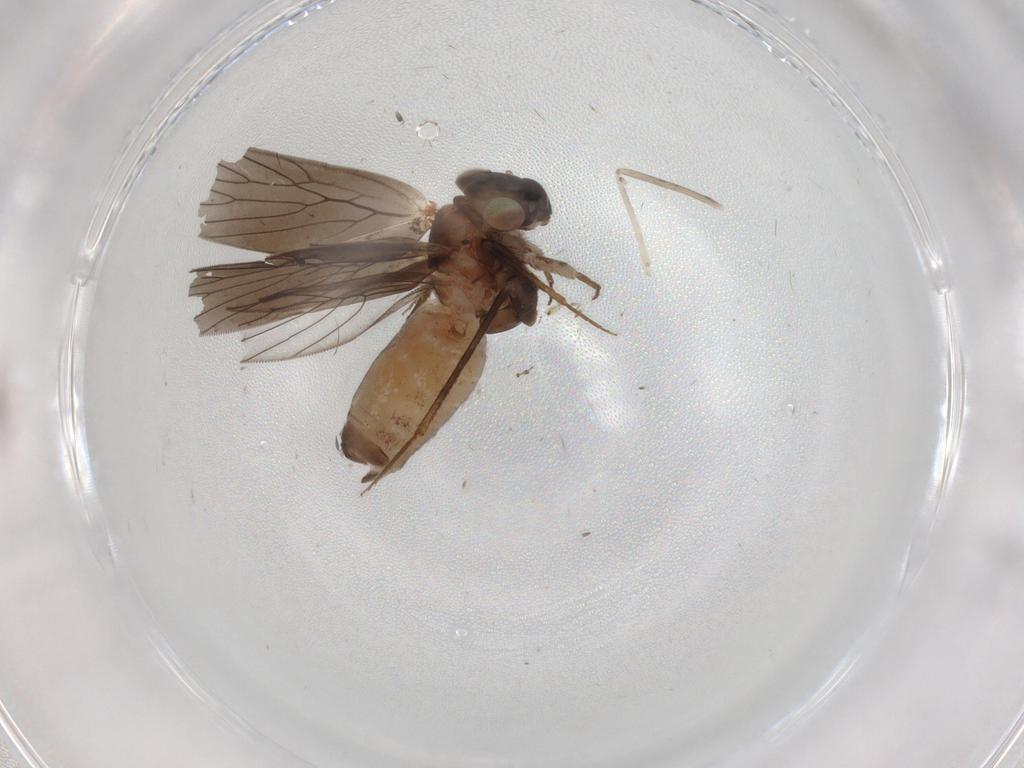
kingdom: Animalia
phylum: Arthropoda
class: Insecta
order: Psocodea
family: Lepidopsocidae
